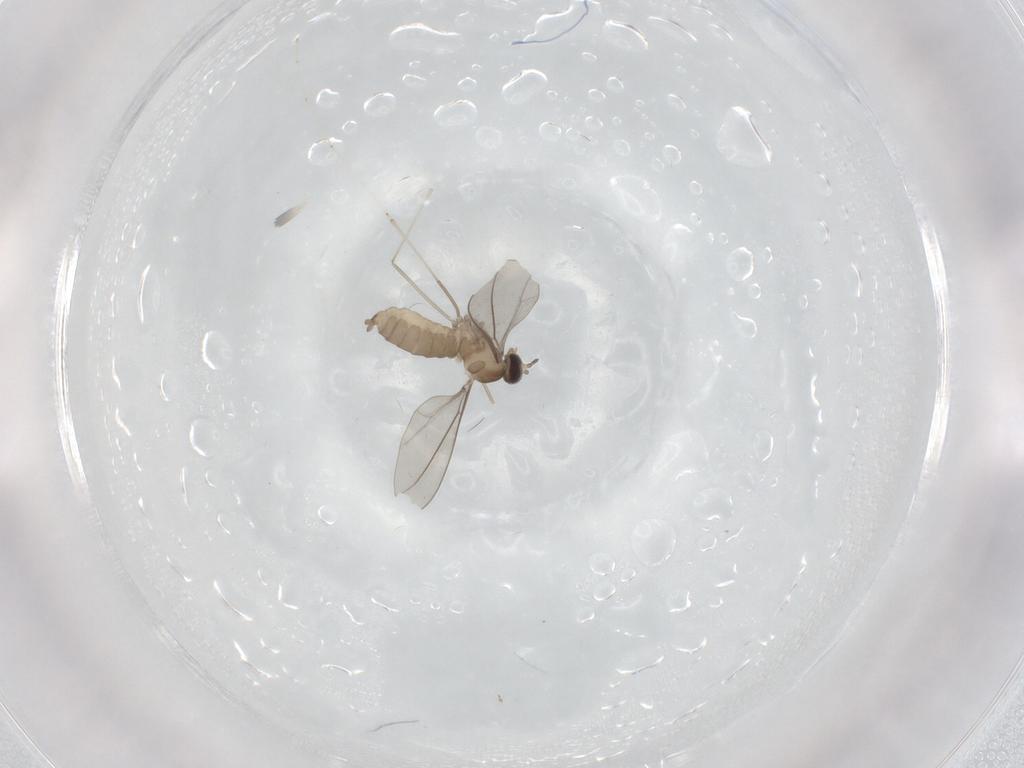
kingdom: Animalia
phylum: Arthropoda
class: Insecta
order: Diptera
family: Cecidomyiidae
